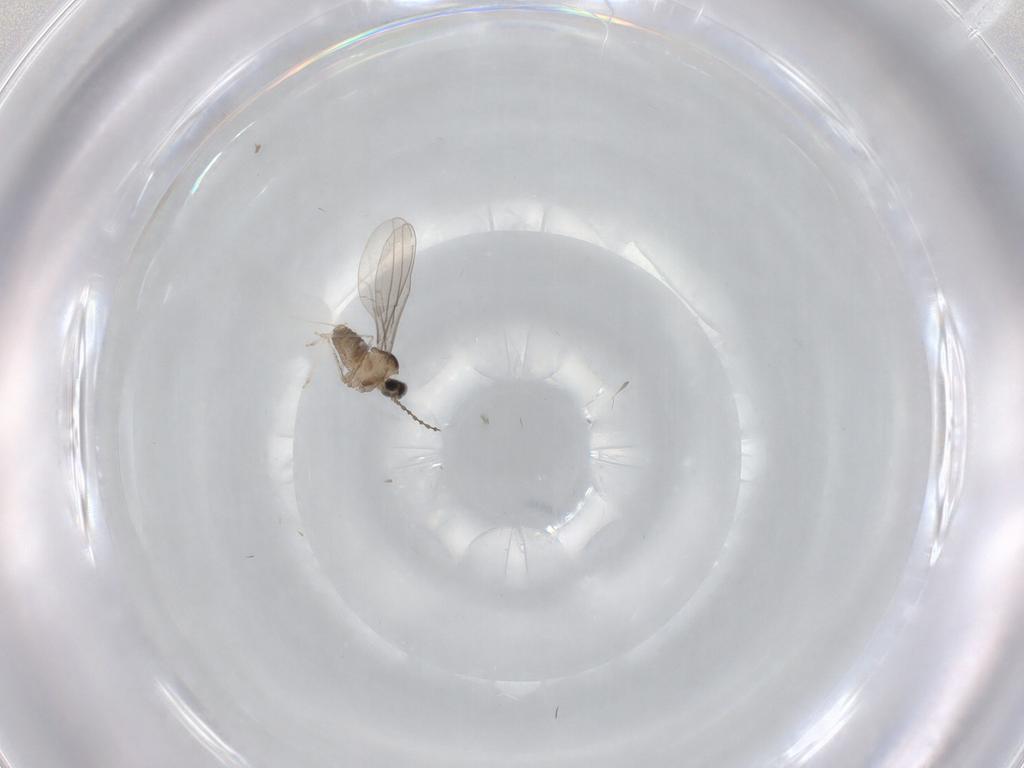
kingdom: Animalia
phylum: Arthropoda
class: Insecta
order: Diptera
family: Cecidomyiidae
